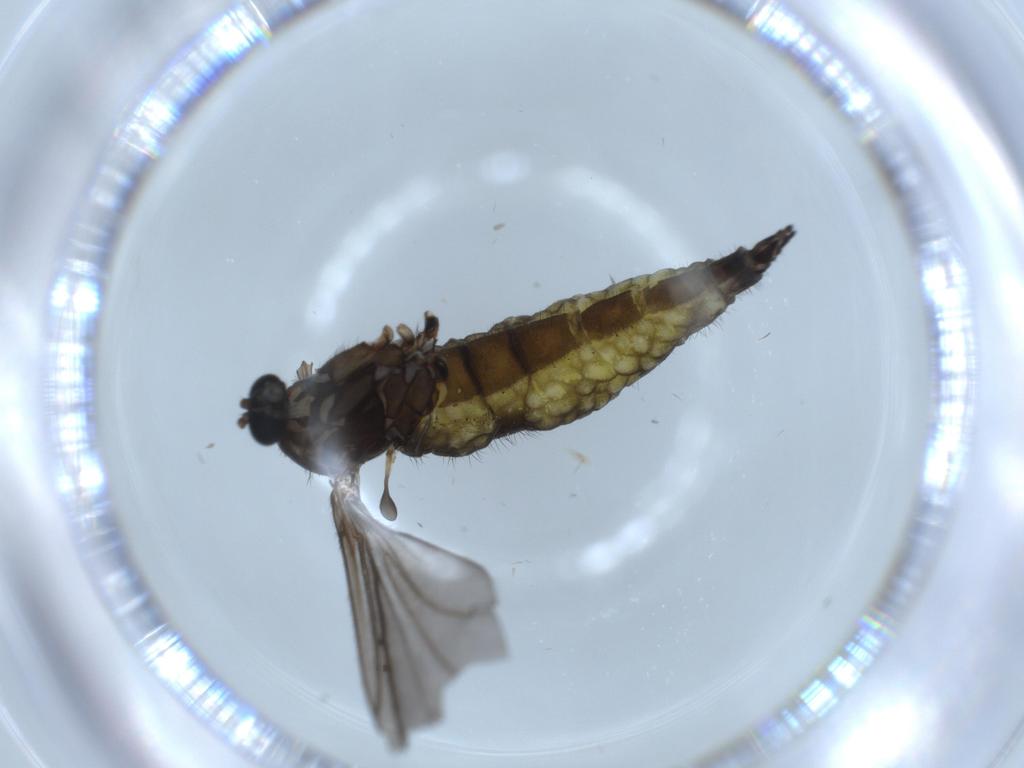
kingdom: Animalia
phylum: Arthropoda
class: Insecta
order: Diptera
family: Sciaridae
